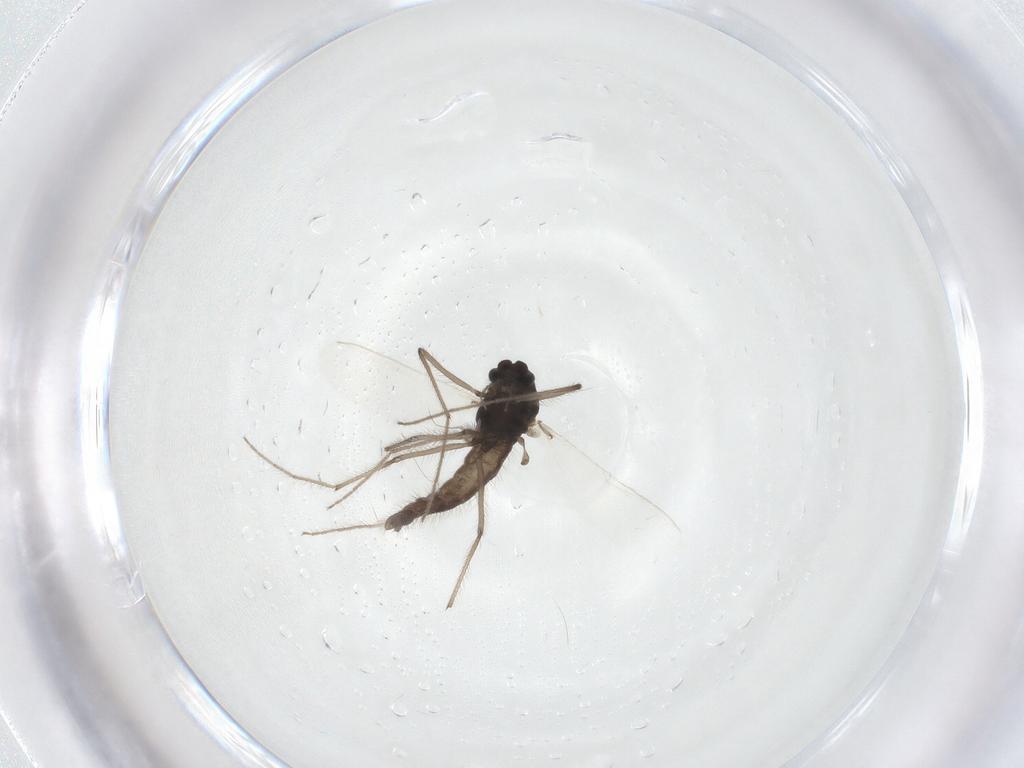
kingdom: Animalia
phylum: Arthropoda
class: Insecta
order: Diptera
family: Chironomidae
